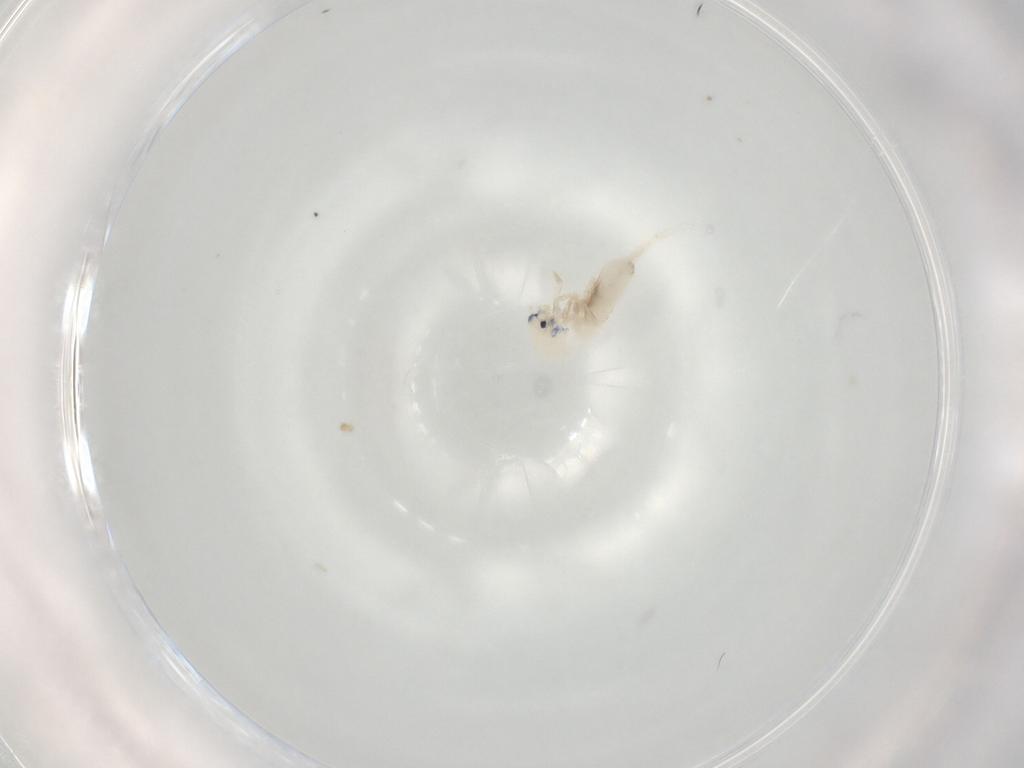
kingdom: Animalia
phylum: Arthropoda
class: Collembola
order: Entomobryomorpha
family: Entomobryidae
